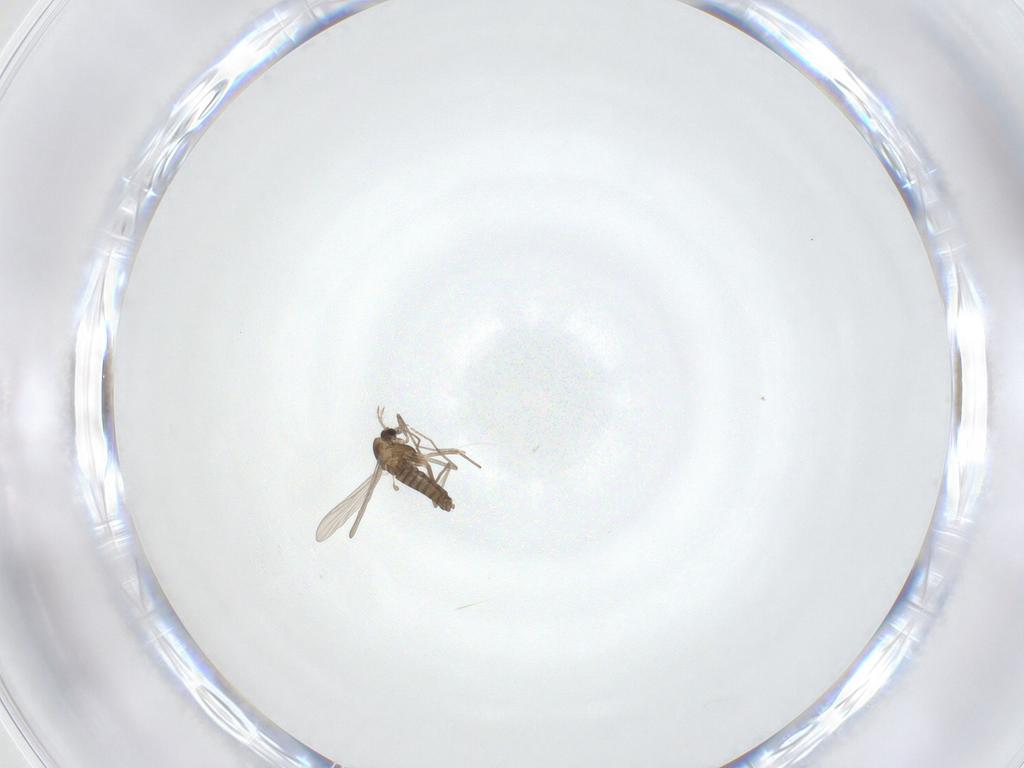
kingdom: Animalia
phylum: Arthropoda
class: Insecta
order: Diptera
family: Chironomidae
